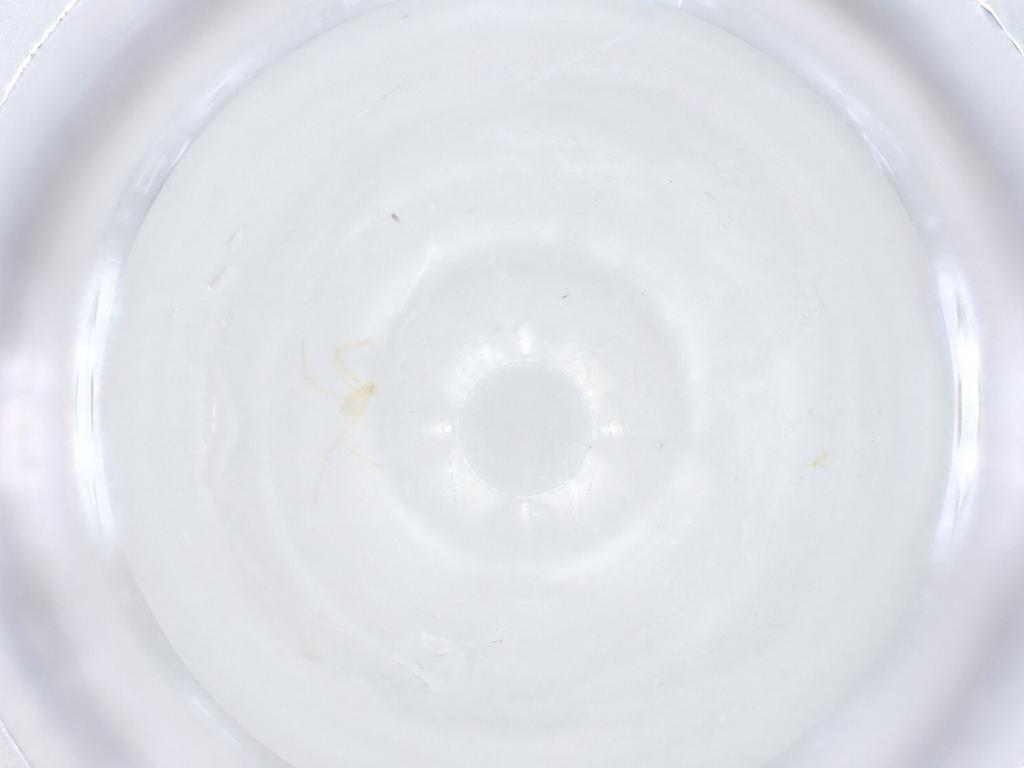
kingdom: Animalia
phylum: Arthropoda
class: Arachnida
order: Trombidiformes
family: Erythraeidae
